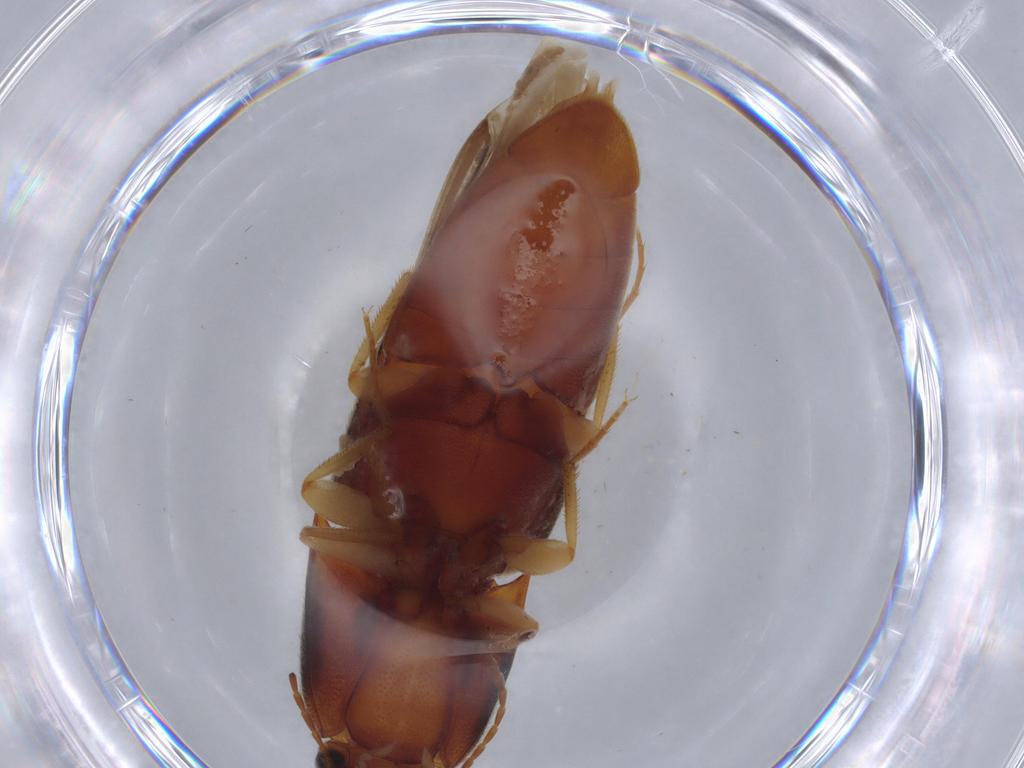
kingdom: Animalia
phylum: Arthropoda
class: Insecta
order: Coleoptera
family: Elateridae
